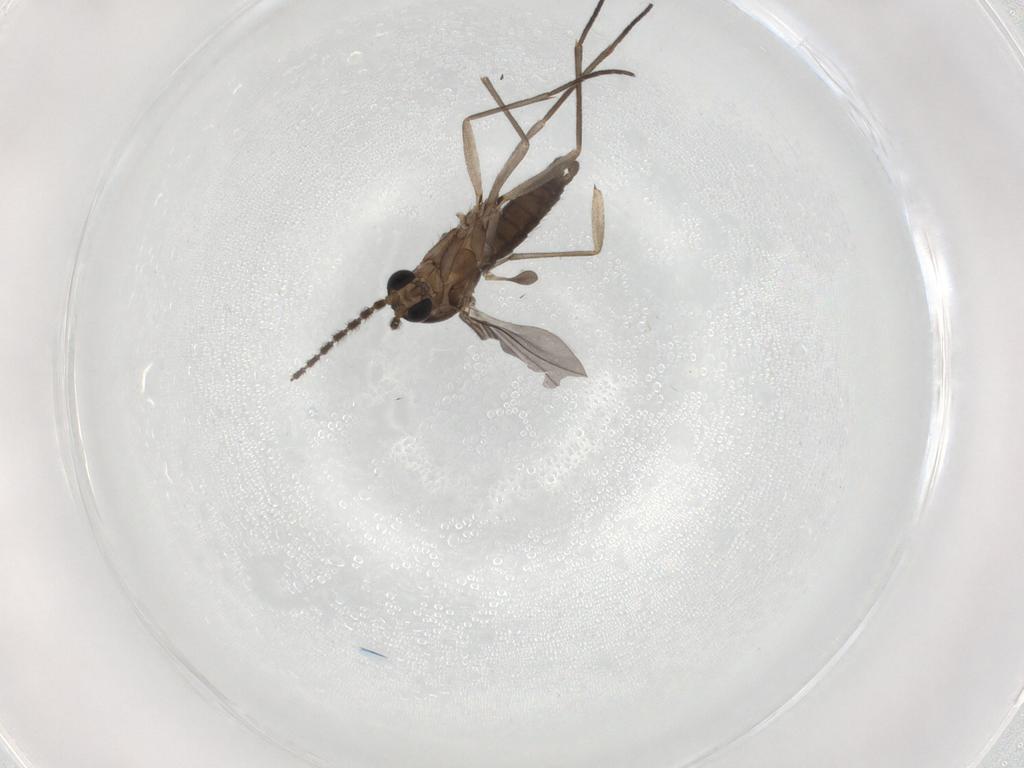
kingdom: Animalia
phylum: Arthropoda
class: Insecta
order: Diptera
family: Sciaridae
